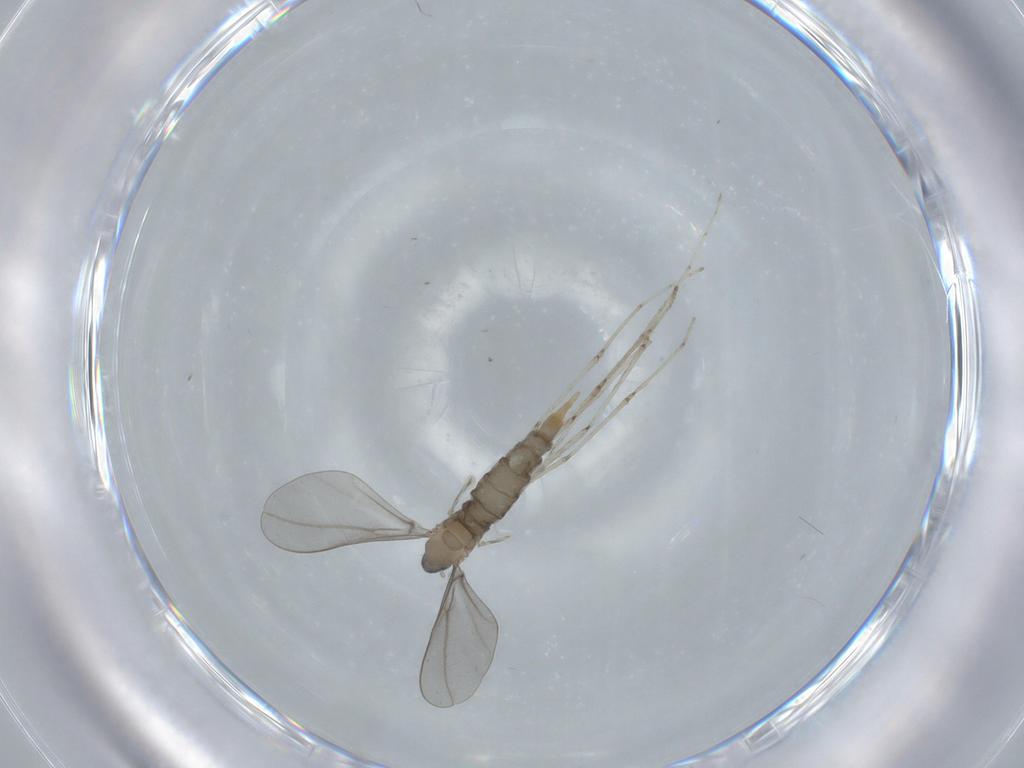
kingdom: Animalia
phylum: Arthropoda
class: Insecta
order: Diptera
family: Cecidomyiidae
